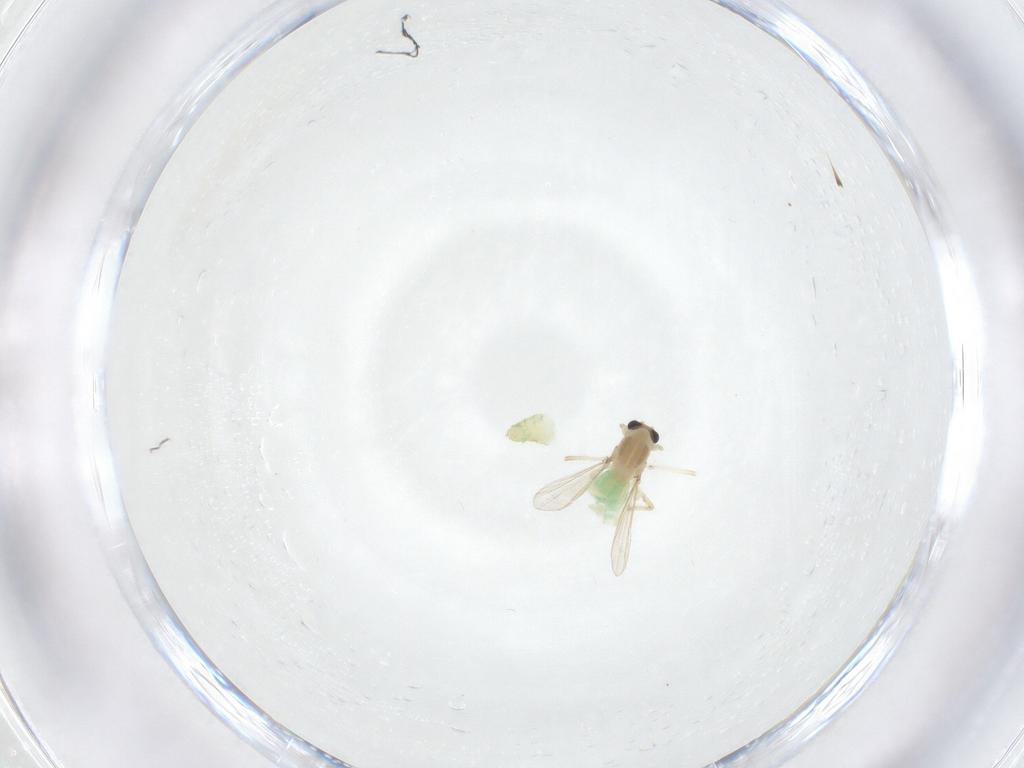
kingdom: Animalia
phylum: Arthropoda
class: Insecta
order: Diptera
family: Chironomidae
